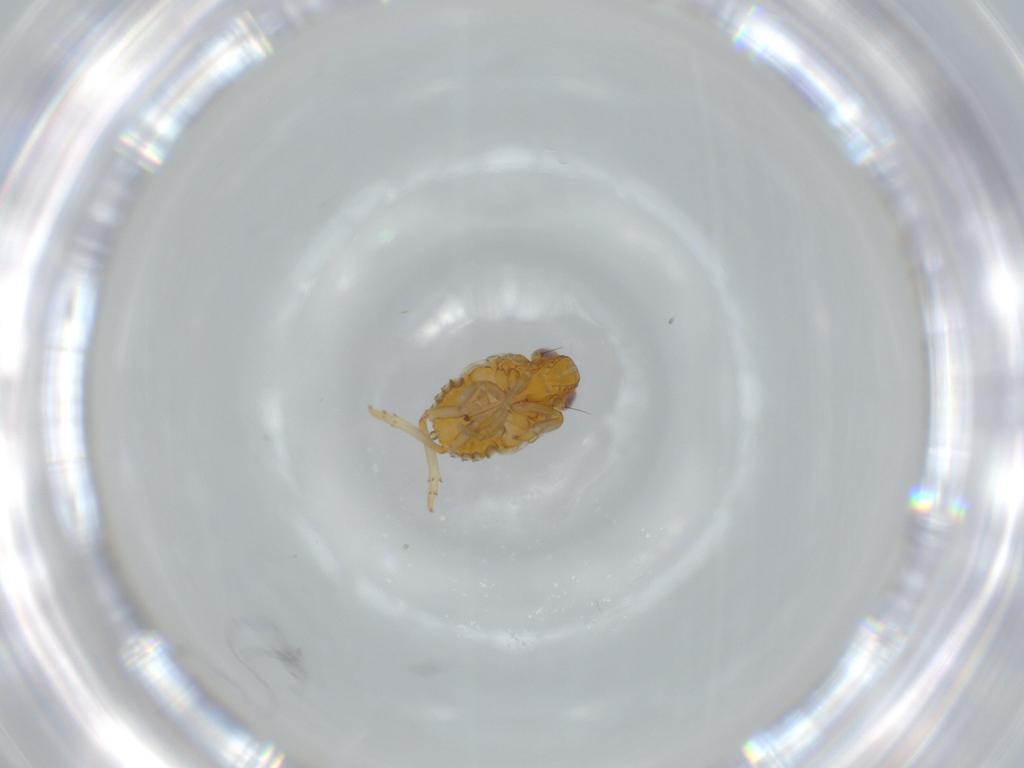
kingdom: Animalia
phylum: Arthropoda
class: Insecta
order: Hemiptera
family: Issidae
